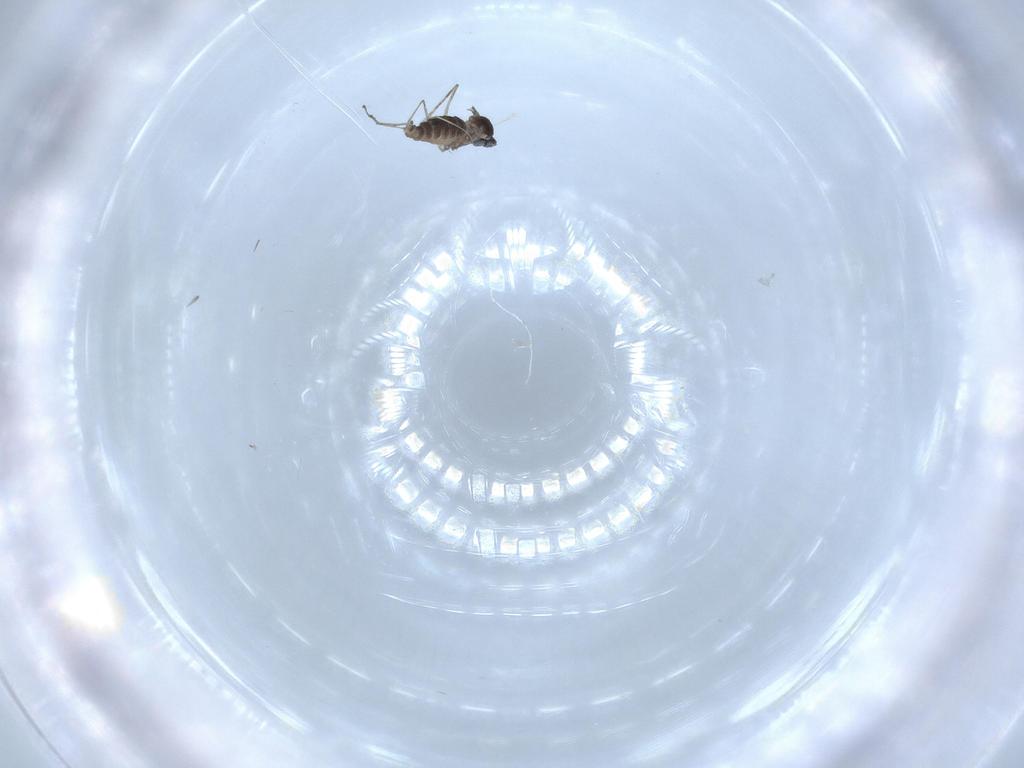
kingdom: Animalia
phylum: Arthropoda
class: Insecta
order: Diptera
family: Cecidomyiidae
